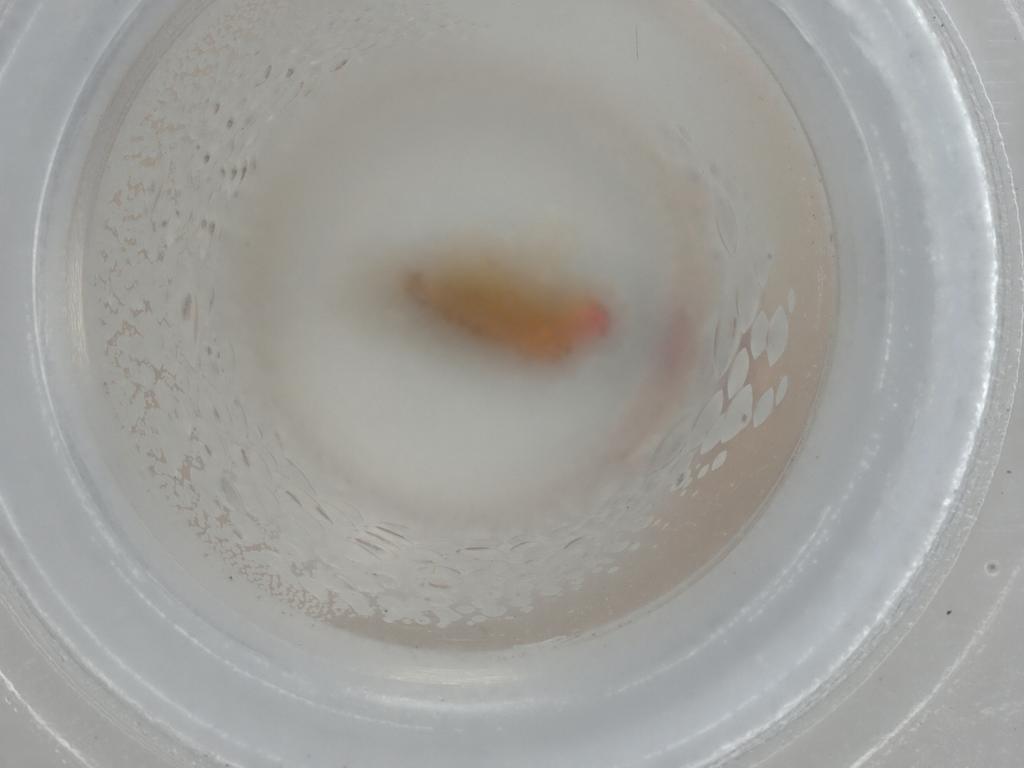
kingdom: Animalia
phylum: Arthropoda
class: Insecta
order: Diptera
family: Drosophilidae
